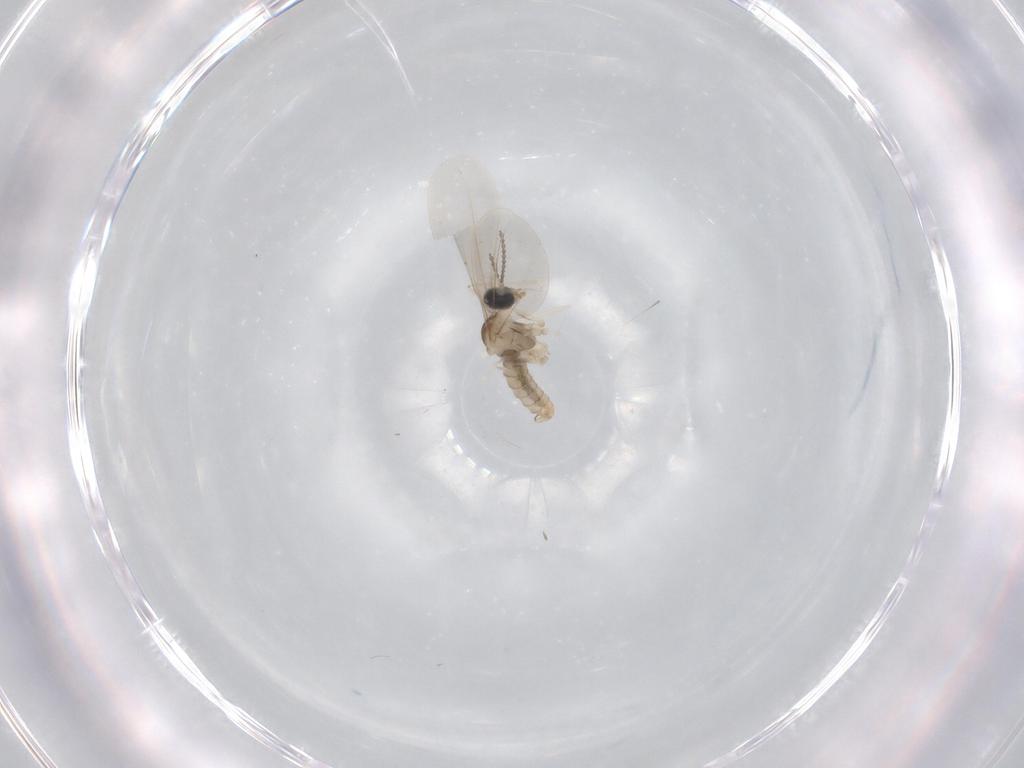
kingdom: Animalia
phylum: Arthropoda
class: Insecta
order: Diptera
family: Cecidomyiidae
